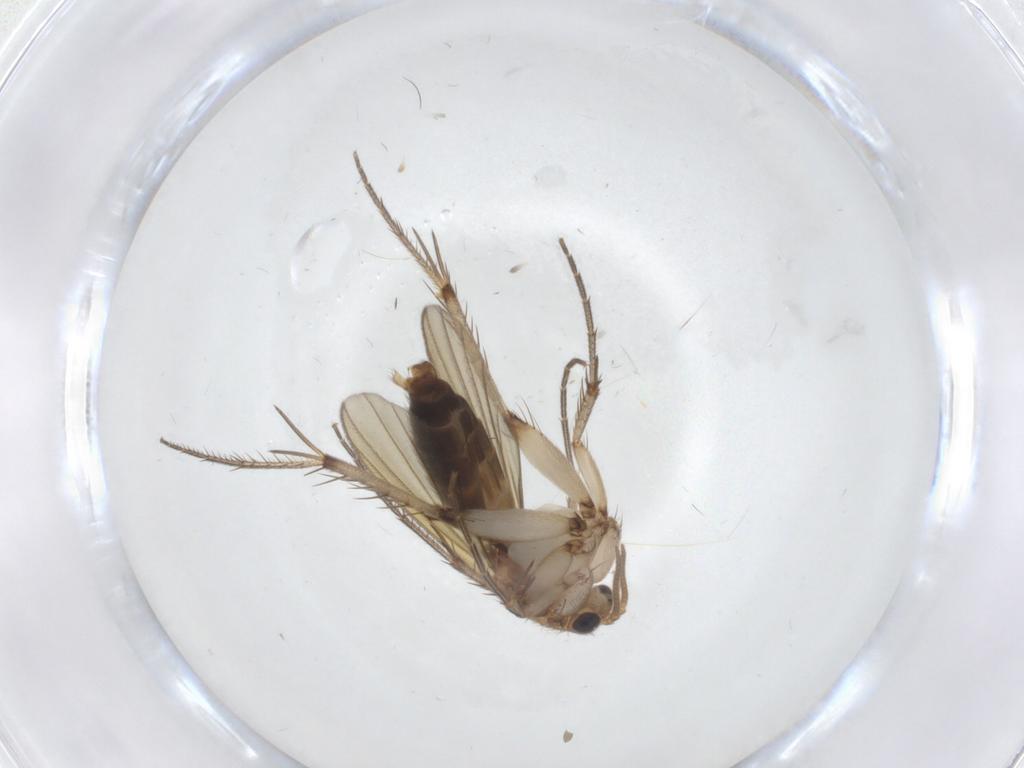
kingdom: Animalia
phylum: Arthropoda
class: Insecta
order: Diptera
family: Mycetophilidae
